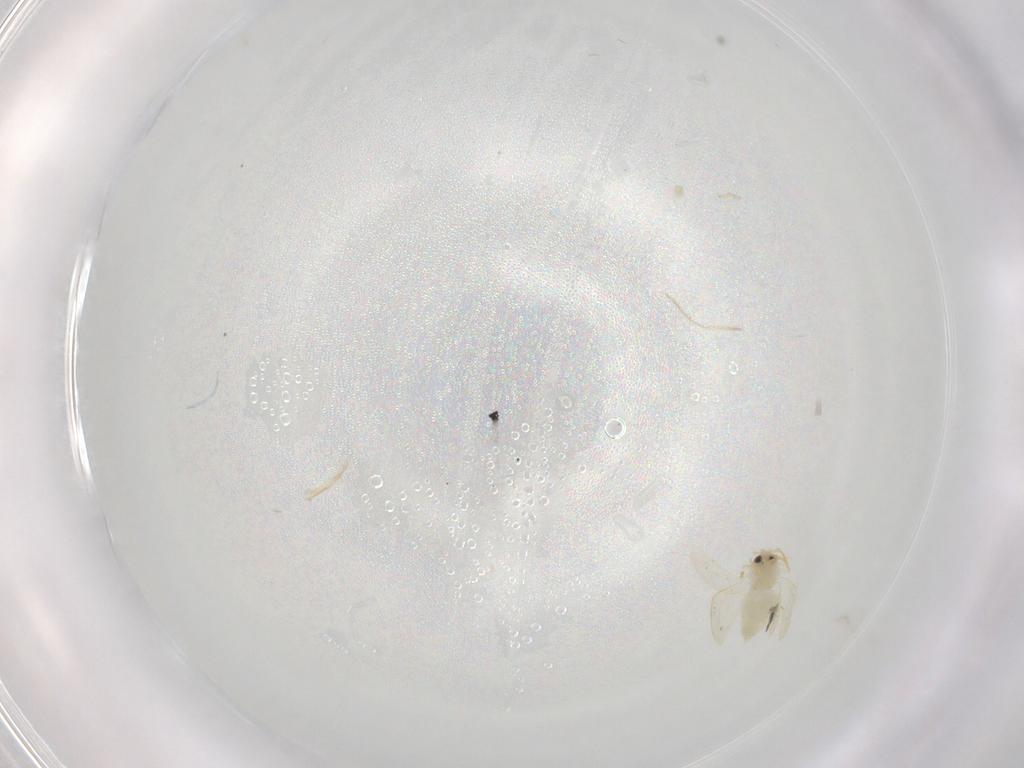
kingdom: Animalia
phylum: Arthropoda
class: Insecta
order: Hemiptera
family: Aleyrodidae
